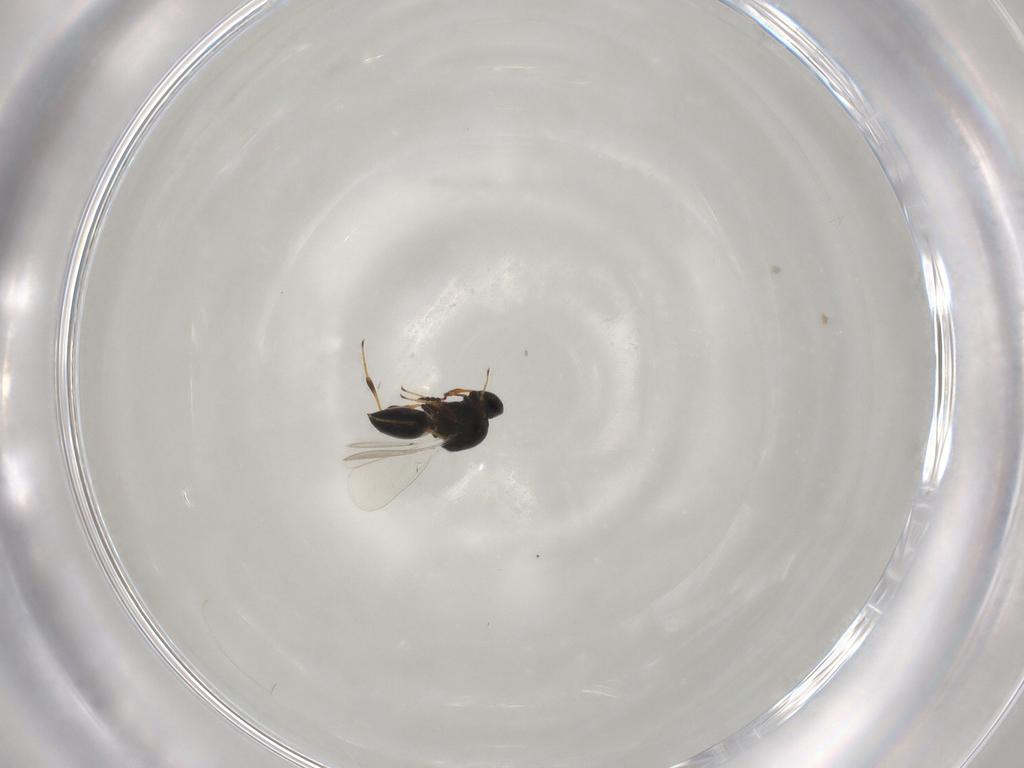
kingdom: Animalia
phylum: Arthropoda
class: Insecta
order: Hymenoptera
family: Platygastridae
